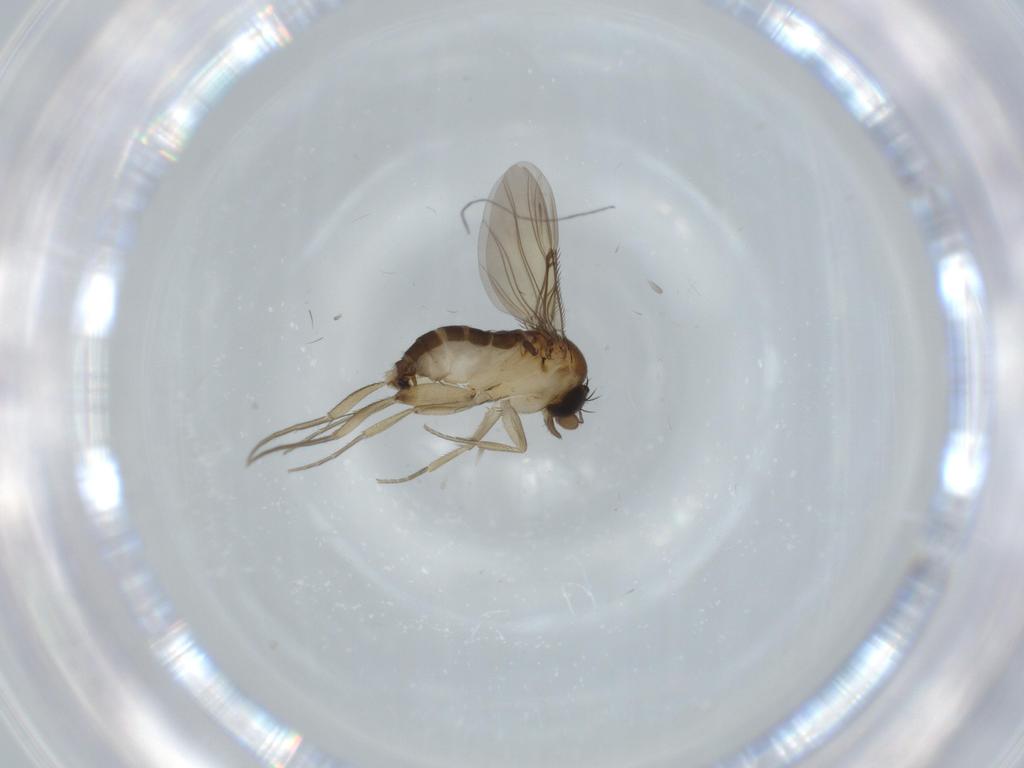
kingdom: Animalia
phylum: Arthropoda
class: Insecta
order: Diptera
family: Phoridae
